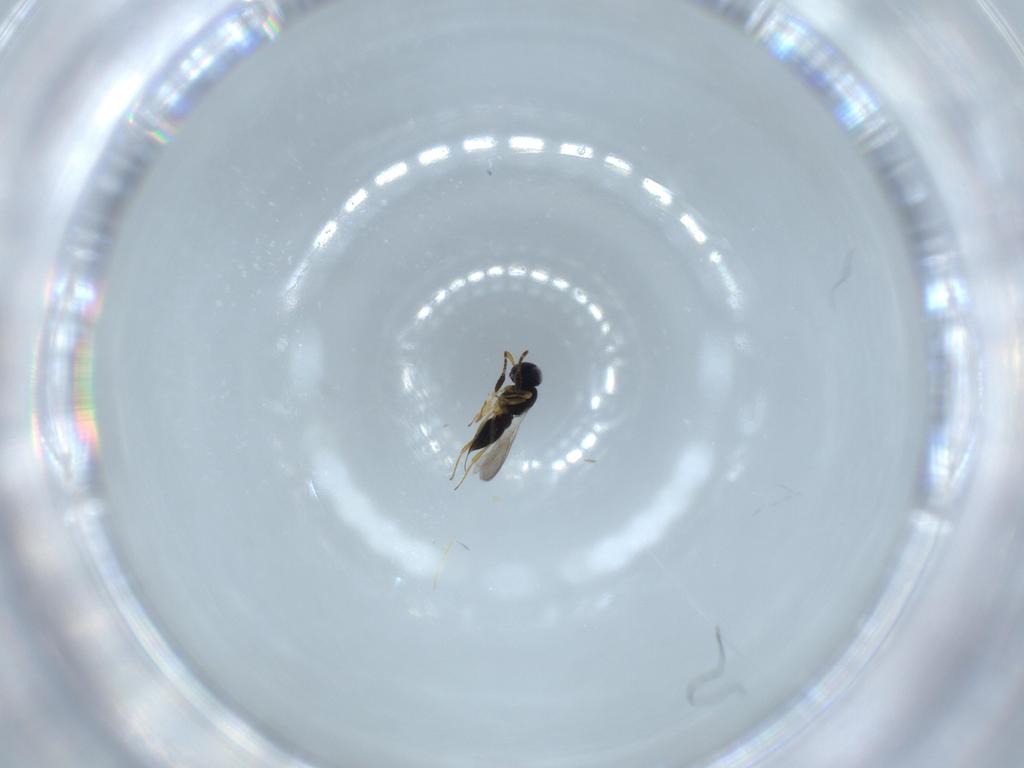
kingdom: Animalia
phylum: Arthropoda
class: Insecta
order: Hymenoptera
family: Scelionidae
